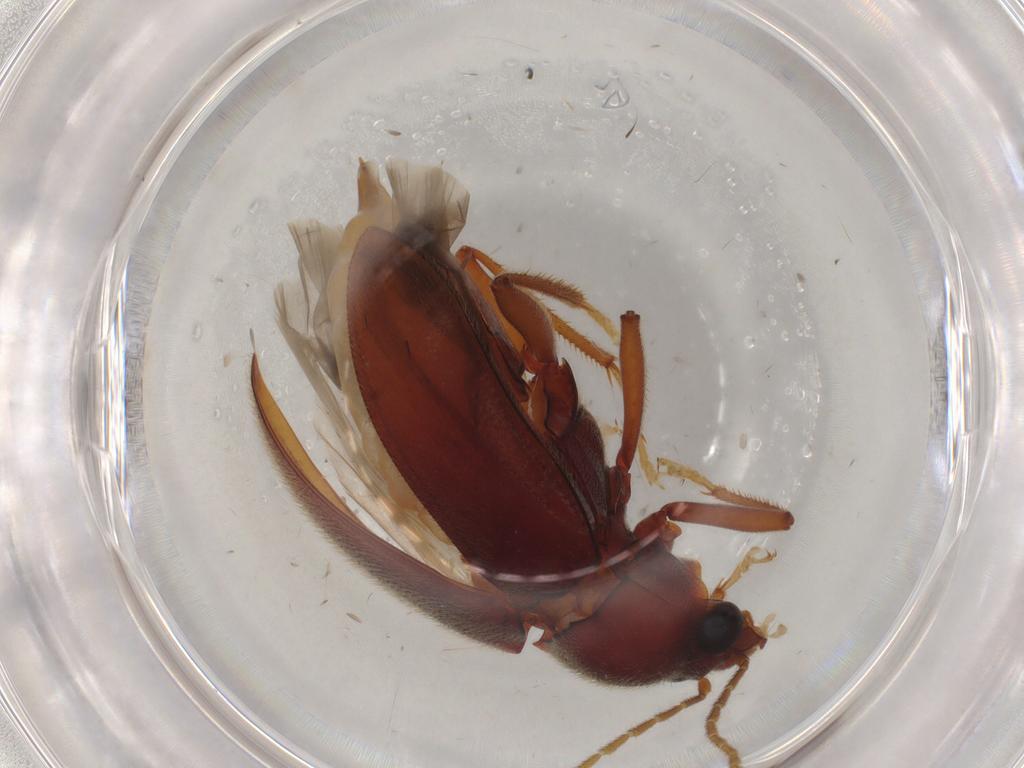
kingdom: Animalia
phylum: Arthropoda
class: Insecta
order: Coleoptera
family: Ptilodactylidae
